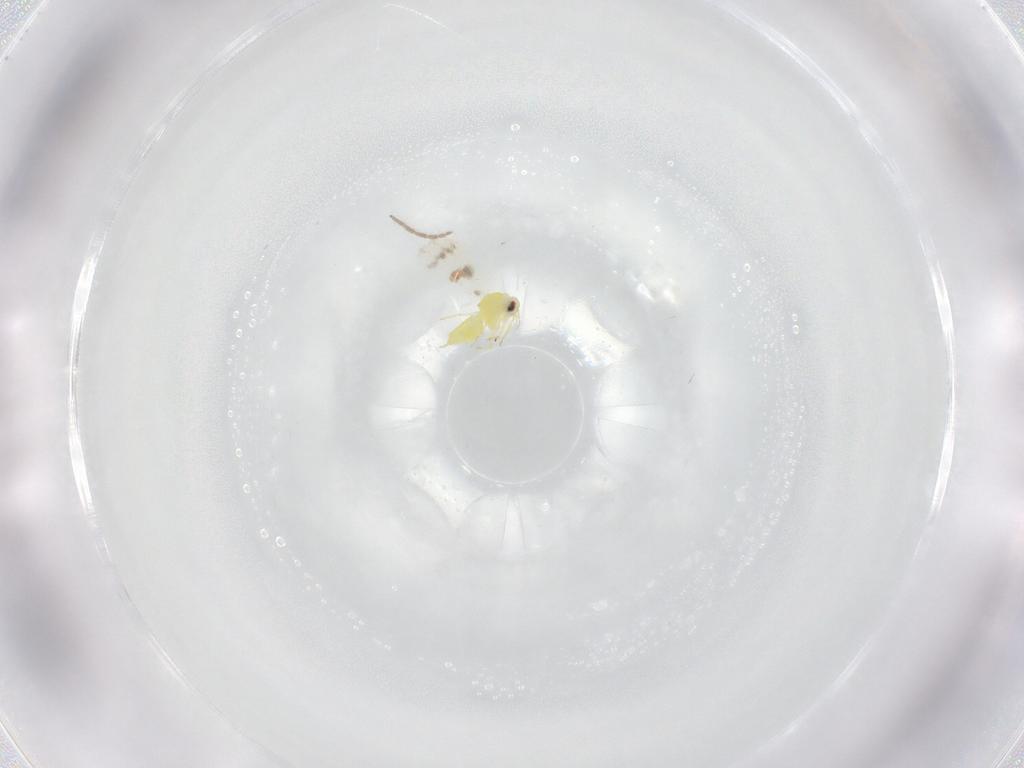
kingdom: Animalia
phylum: Arthropoda
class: Insecta
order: Hemiptera
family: Aleyrodidae
